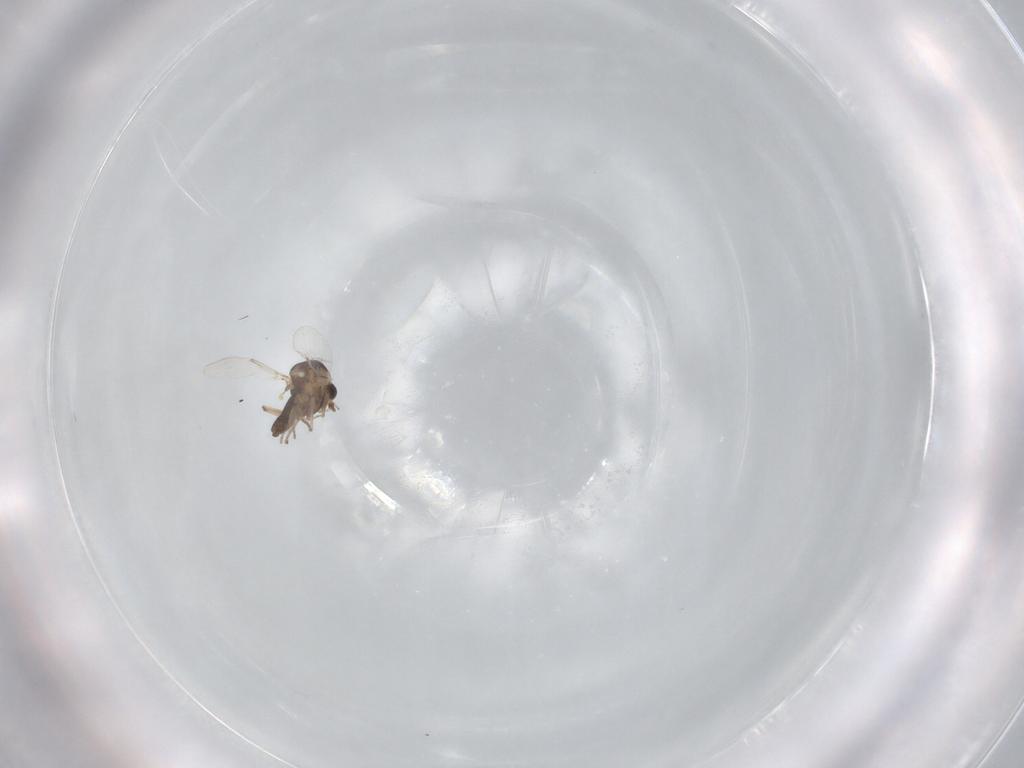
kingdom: Animalia
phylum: Arthropoda
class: Insecta
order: Diptera
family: Ceratopogonidae
